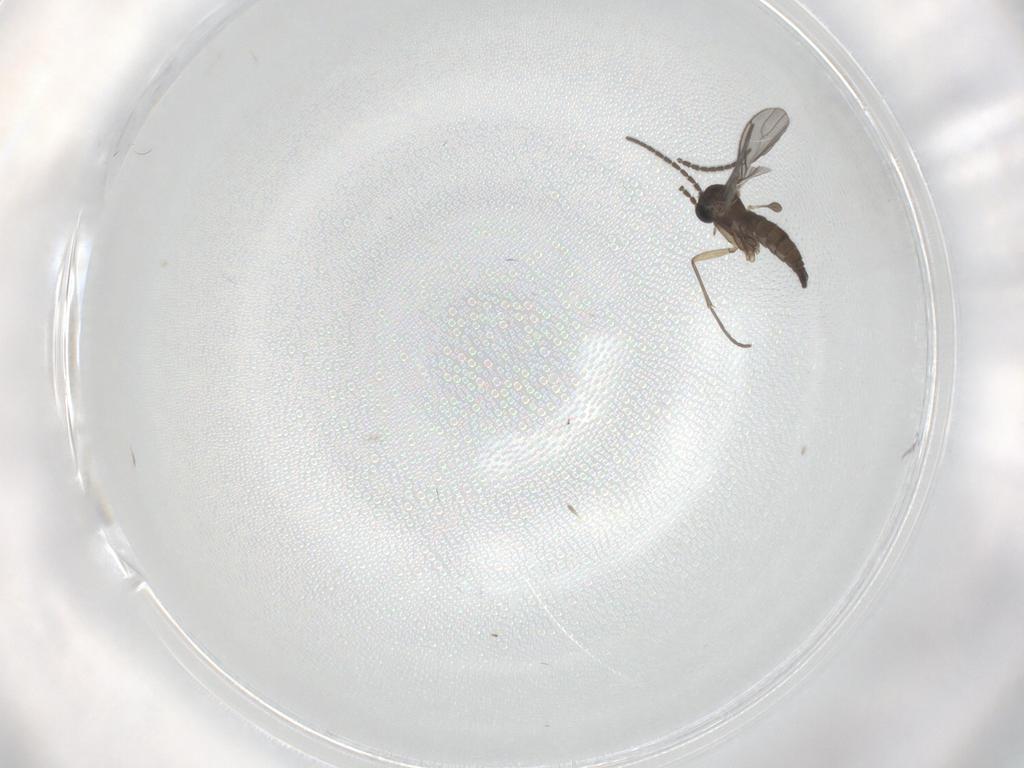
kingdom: Animalia
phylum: Arthropoda
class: Insecta
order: Diptera
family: Sciaridae
